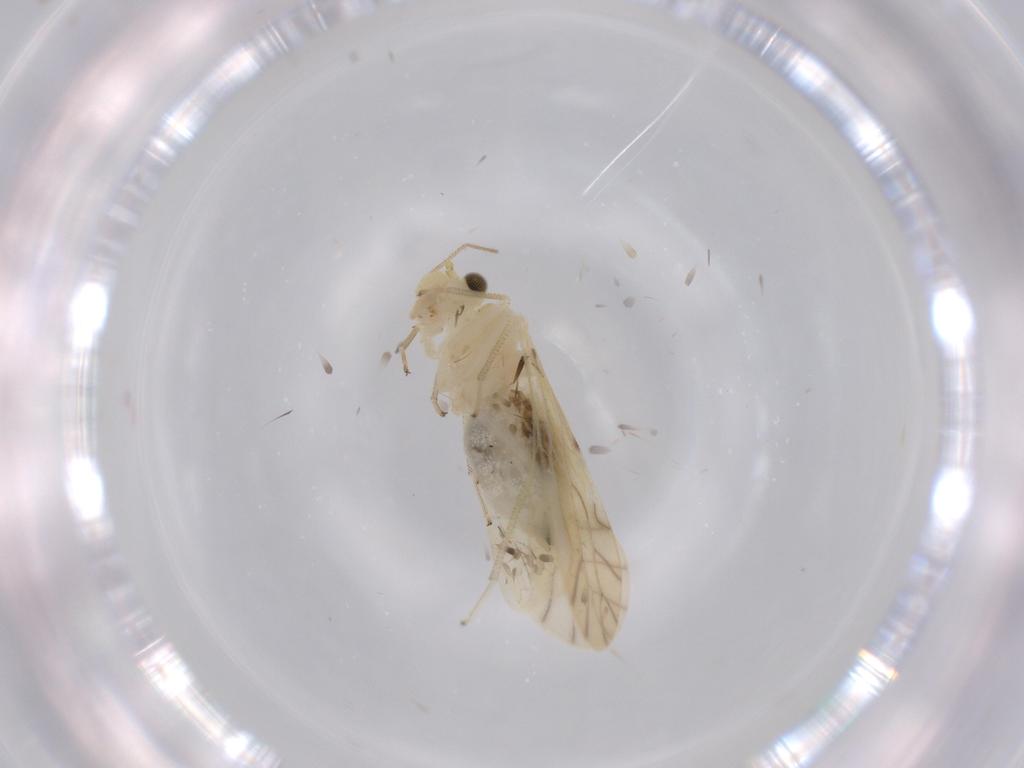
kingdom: Animalia
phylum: Arthropoda
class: Insecta
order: Psocodea
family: Caeciliusidae
